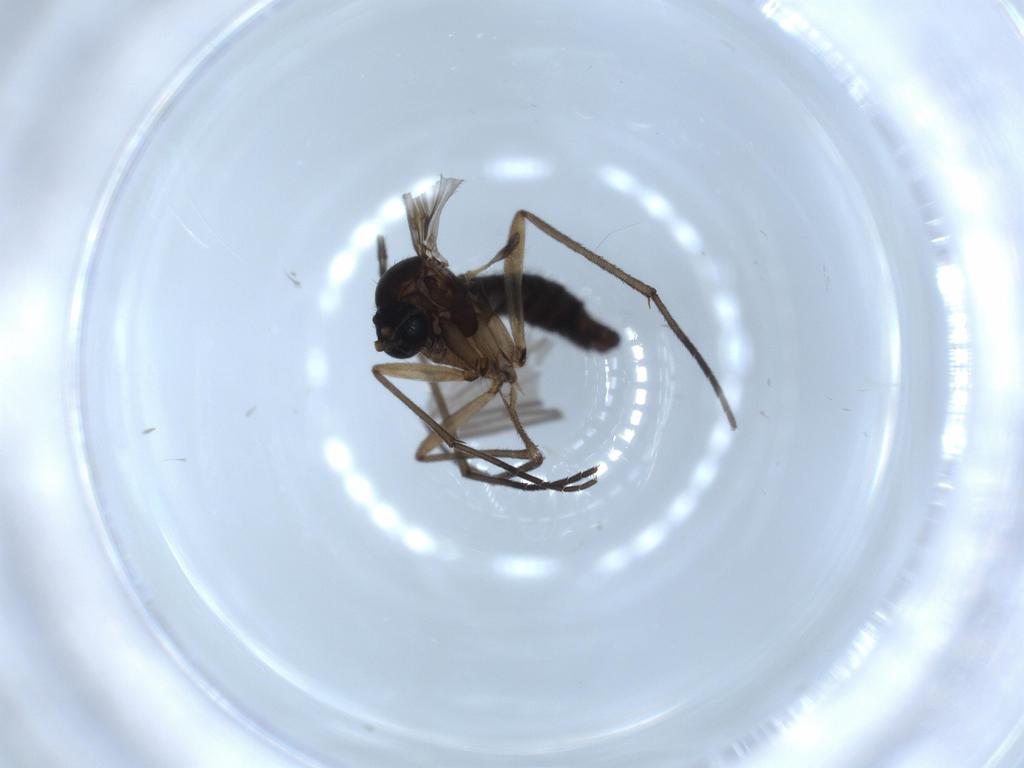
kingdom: Animalia
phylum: Arthropoda
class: Insecta
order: Diptera
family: Sciaridae
